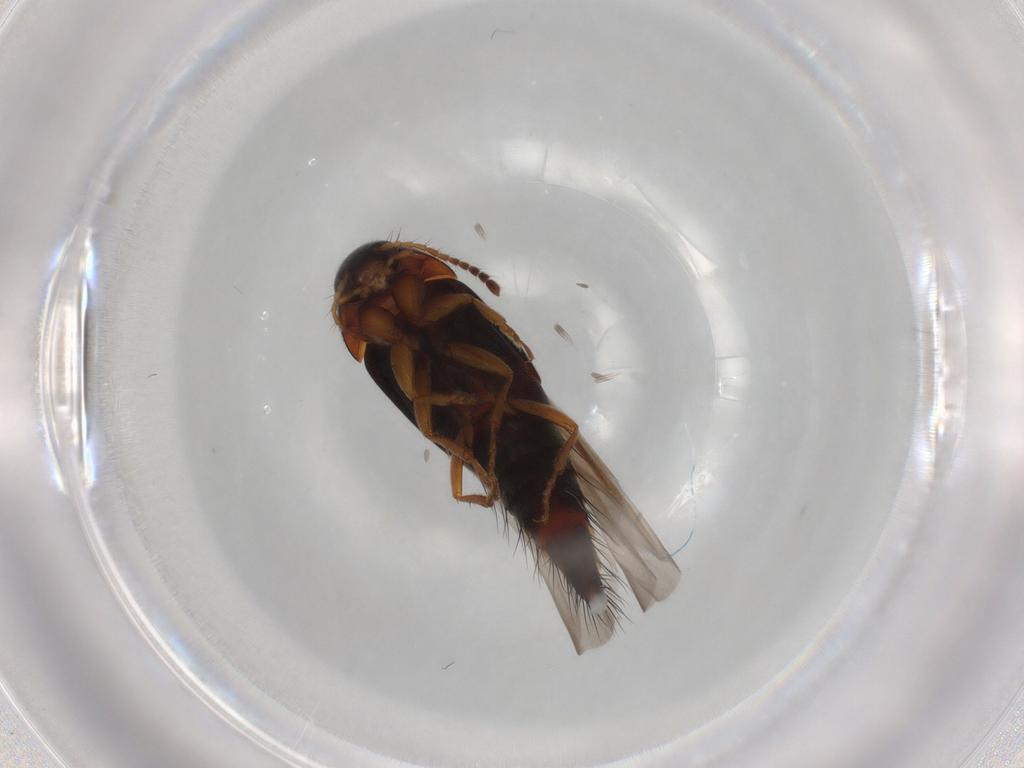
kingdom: Animalia
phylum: Arthropoda
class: Insecta
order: Coleoptera
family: Staphylinidae
